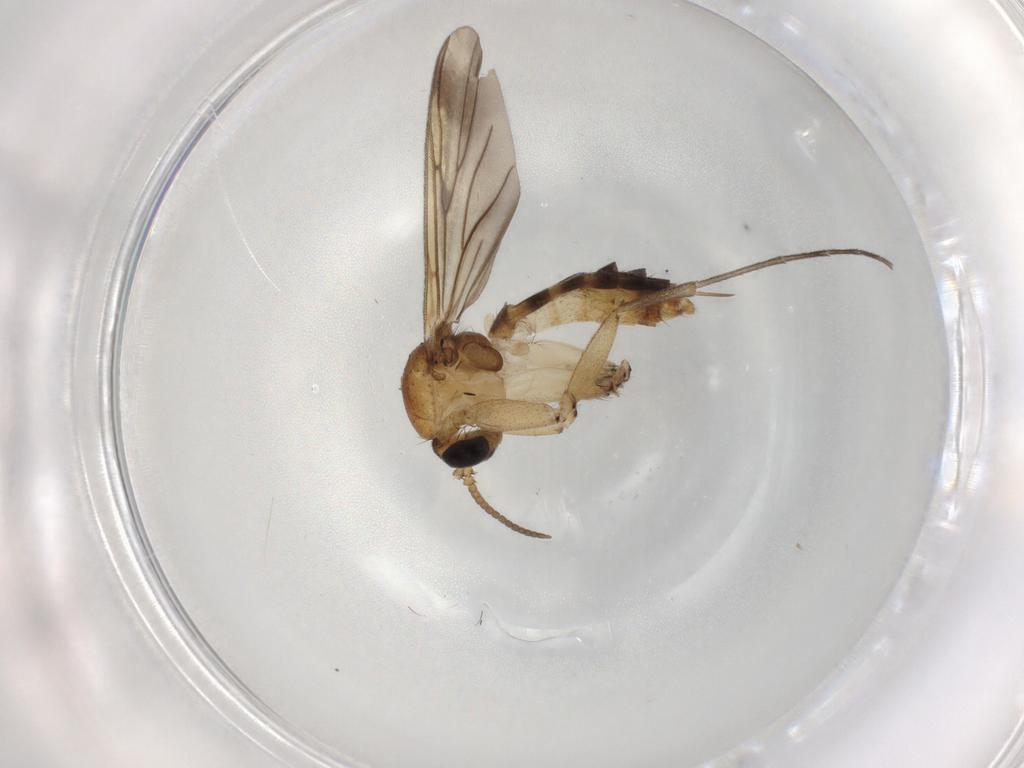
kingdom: Animalia
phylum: Arthropoda
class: Insecta
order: Diptera
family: Mycetophilidae
